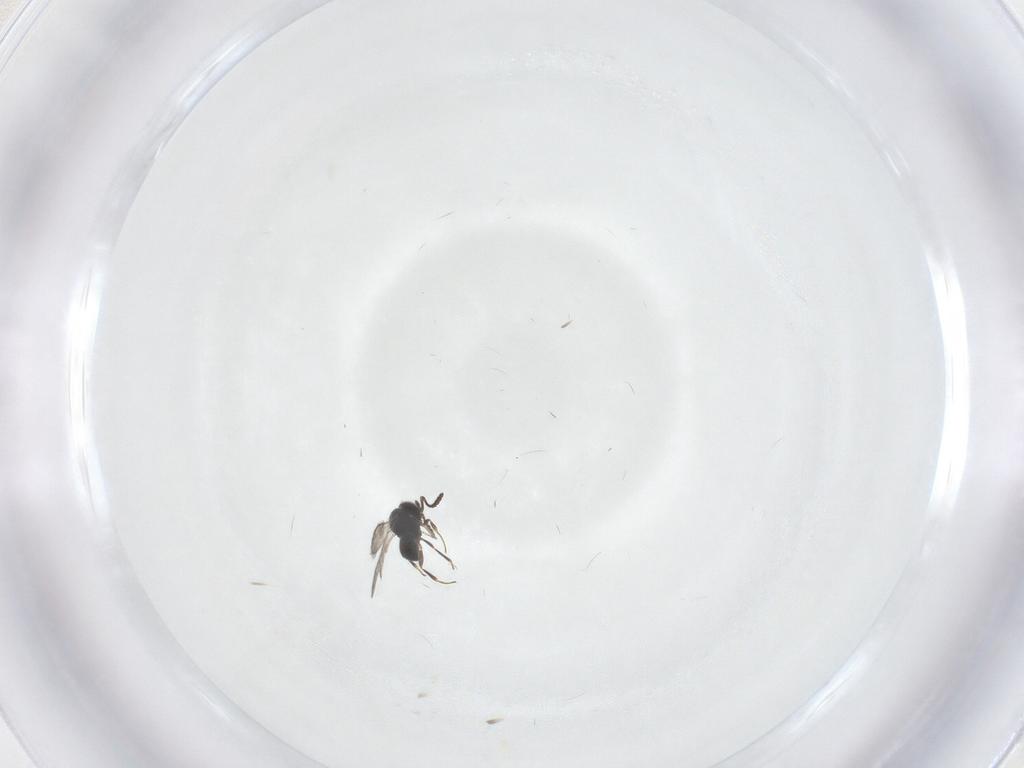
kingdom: Animalia
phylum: Arthropoda
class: Insecta
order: Hymenoptera
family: Scelionidae
